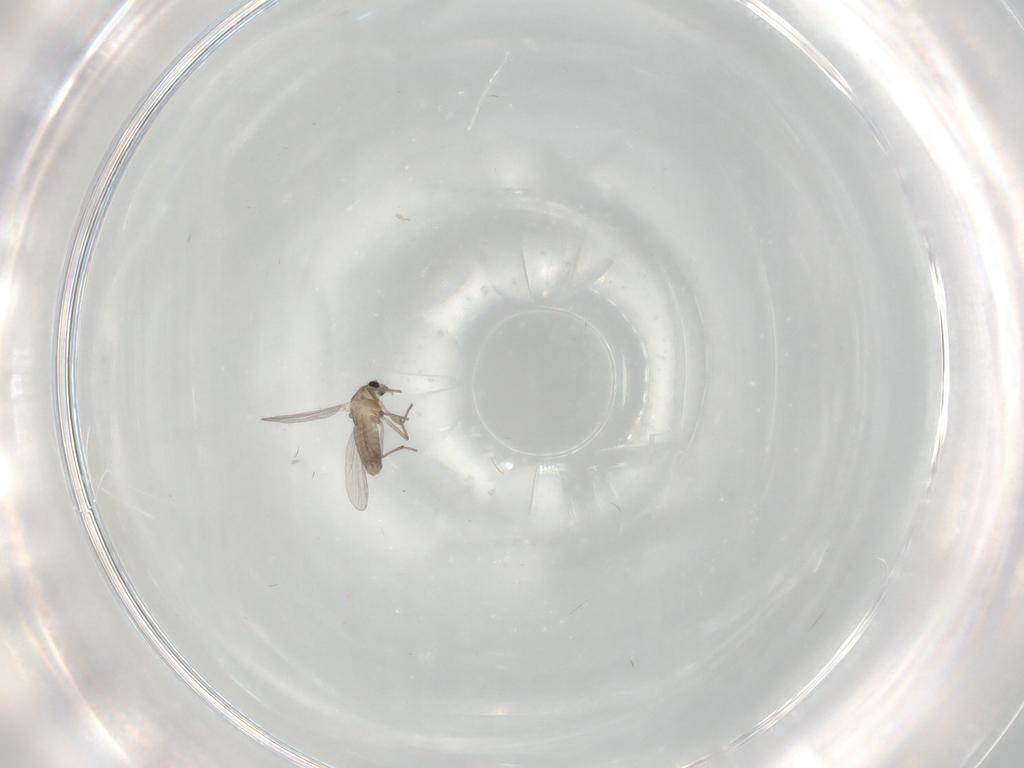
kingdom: Animalia
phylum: Arthropoda
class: Insecta
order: Diptera
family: Chironomidae
